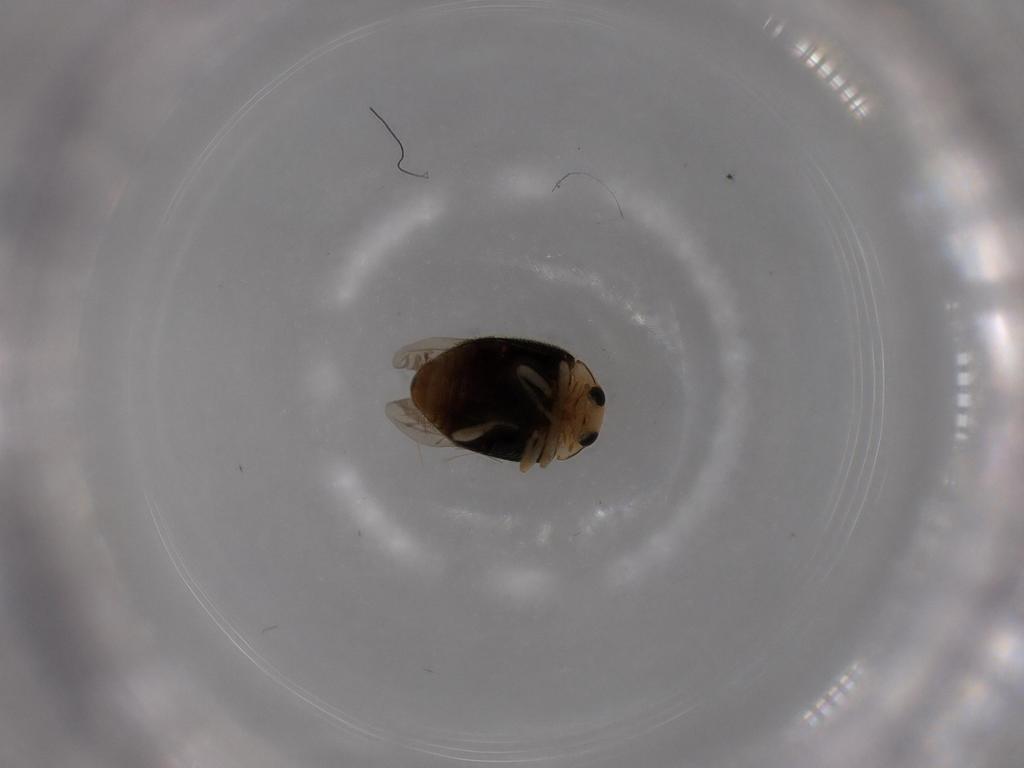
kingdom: Animalia
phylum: Arthropoda
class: Insecta
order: Coleoptera
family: Coccinellidae
